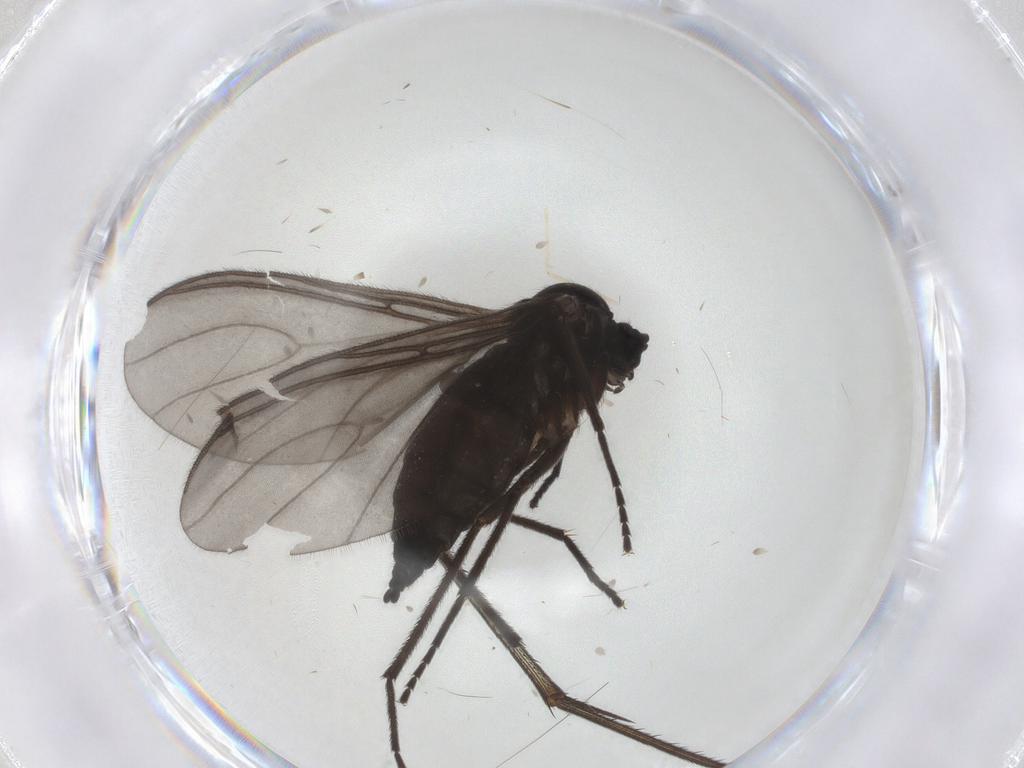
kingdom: Animalia
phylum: Arthropoda
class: Insecta
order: Diptera
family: Sciaridae
